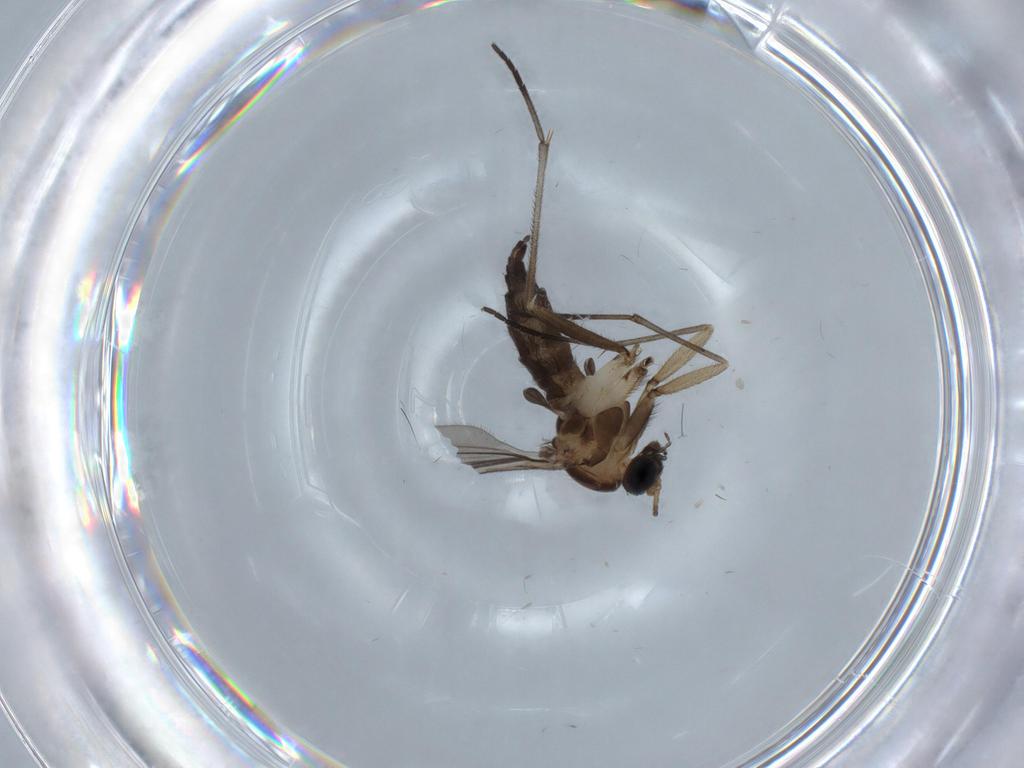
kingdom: Animalia
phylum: Arthropoda
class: Insecta
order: Diptera
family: Sciaridae
